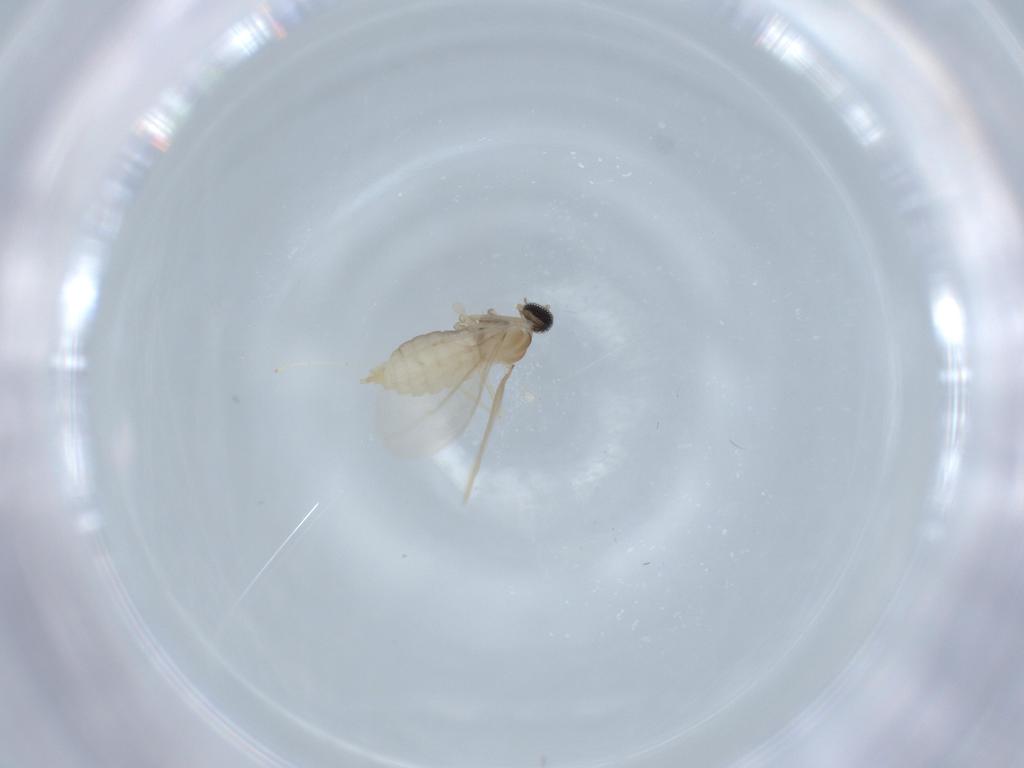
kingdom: Animalia
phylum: Arthropoda
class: Insecta
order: Diptera
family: Cecidomyiidae
